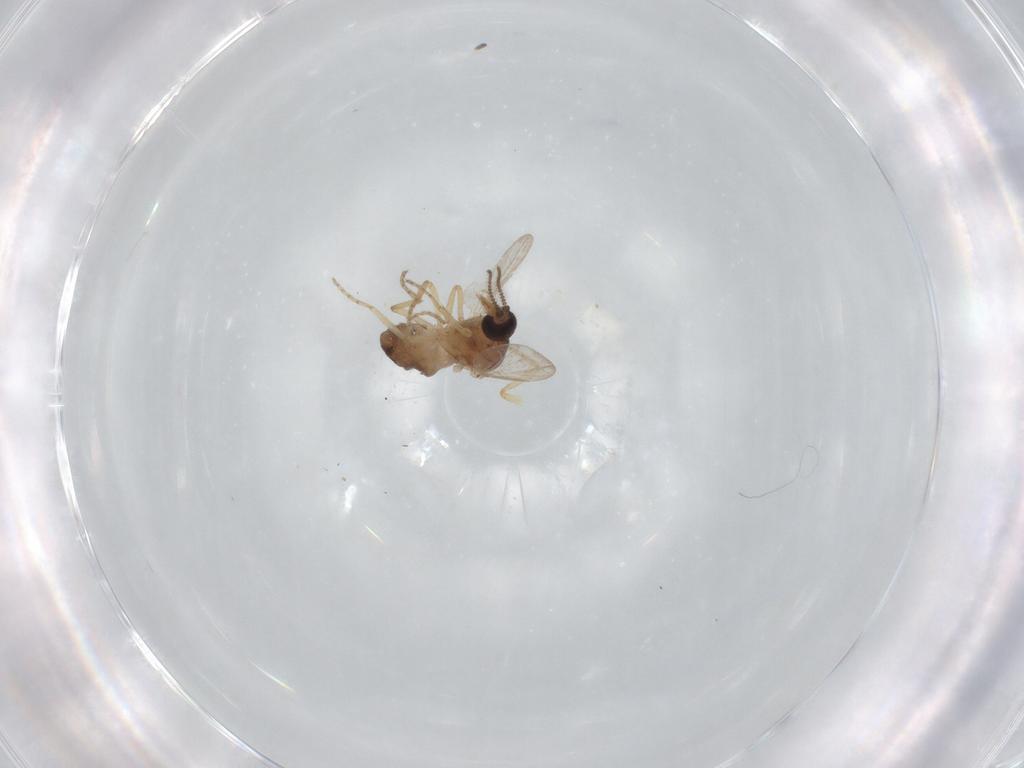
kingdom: Animalia
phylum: Arthropoda
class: Insecta
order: Diptera
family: Ceratopogonidae
